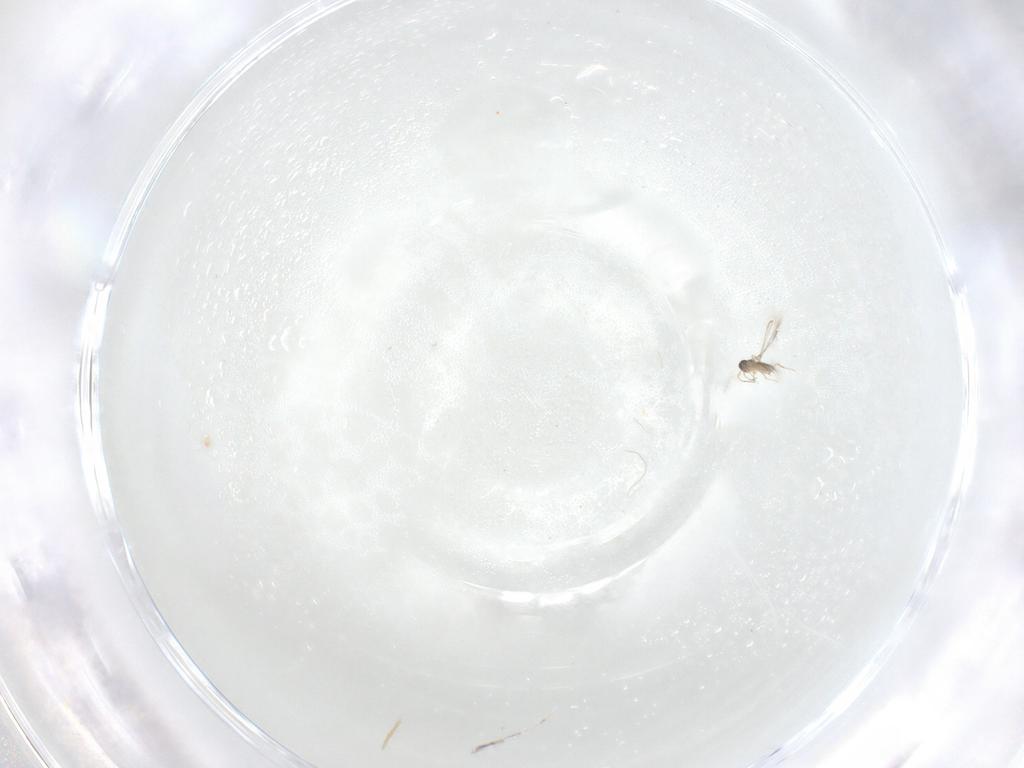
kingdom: Animalia
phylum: Arthropoda
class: Insecta
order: Hymenoptera
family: Mymaridae
